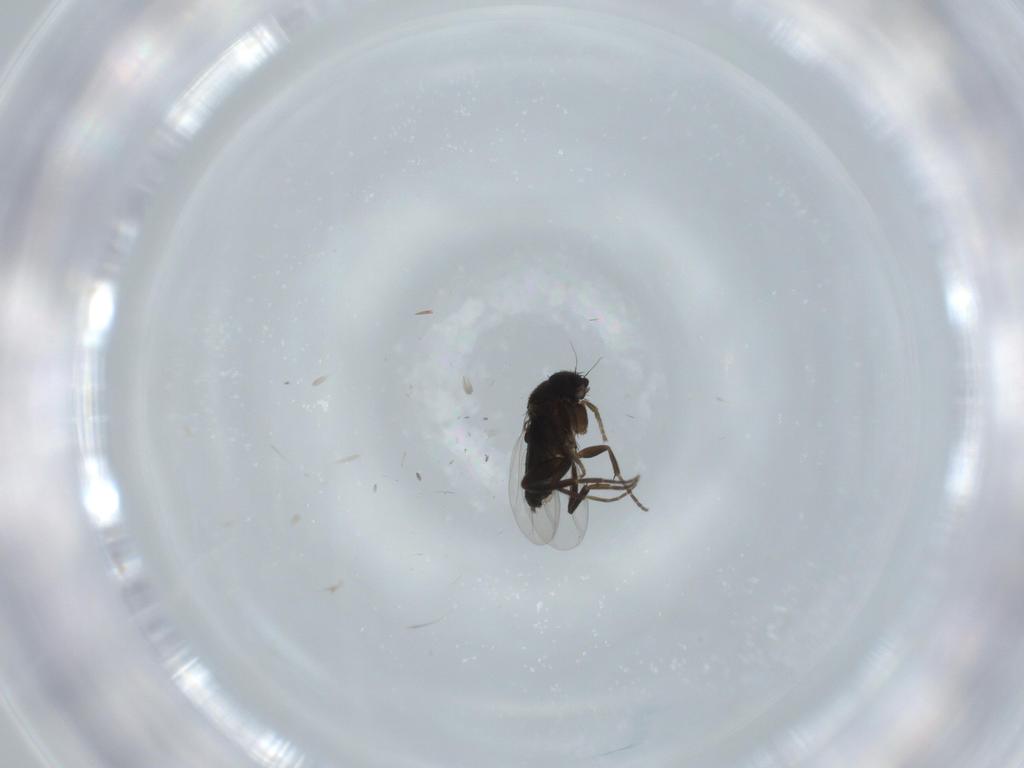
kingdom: Animalia
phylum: Arthropoda
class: Insecta
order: Diptera
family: Phoridae
